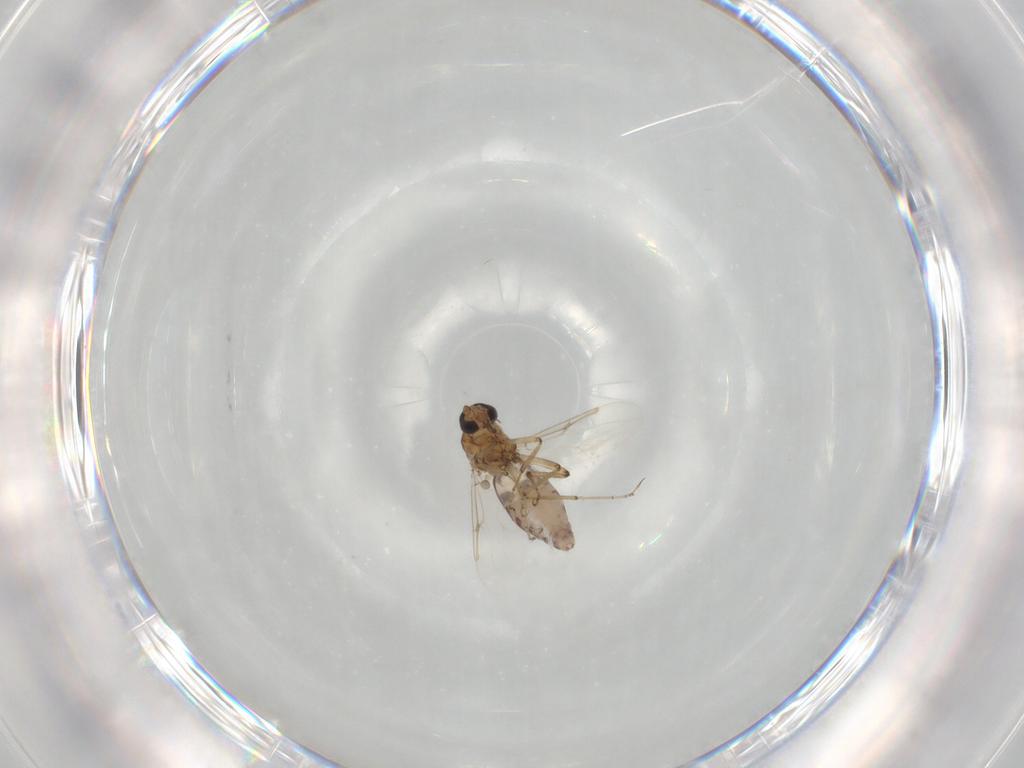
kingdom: Animalia
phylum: Arthropoda
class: Insecta
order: Diptera
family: Ceratopogonidae
